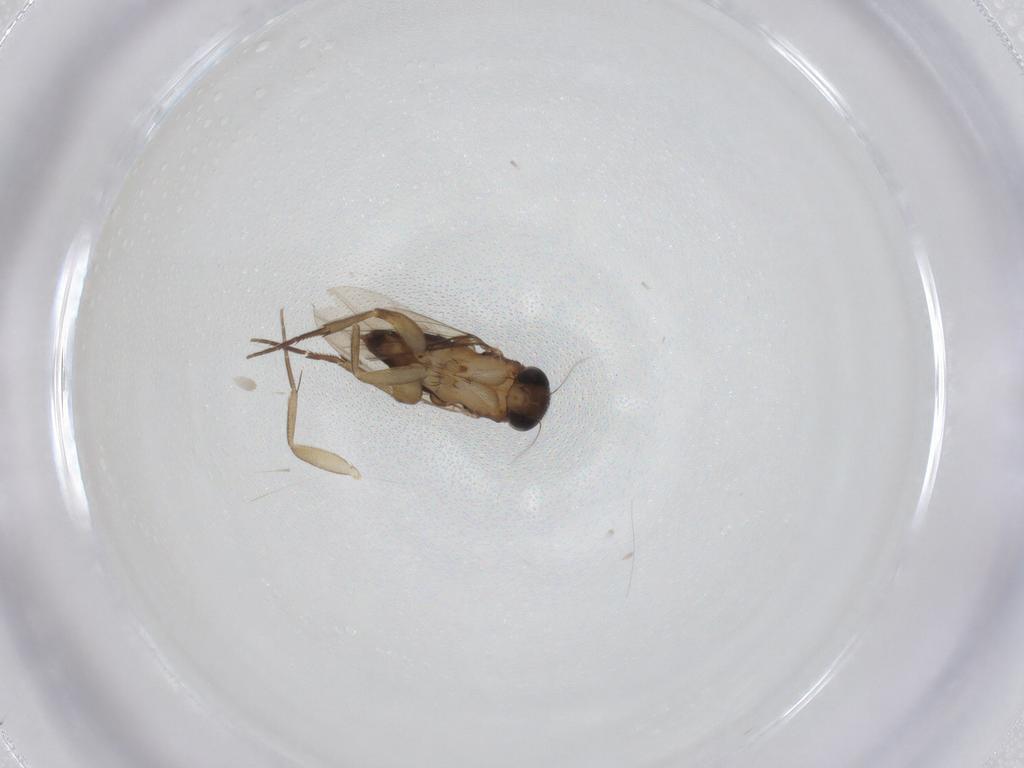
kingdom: Animalia
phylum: Arthropoda
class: Insecta
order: Diptera
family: Phoridae
